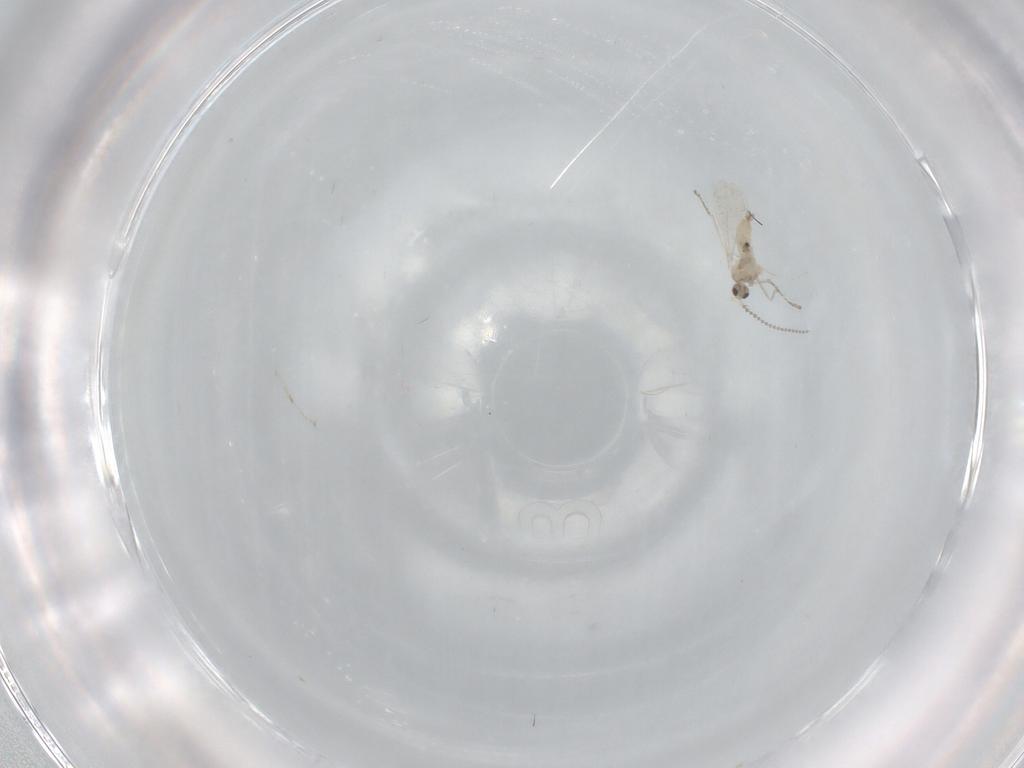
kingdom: Animalia
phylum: Arthropoda
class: Insecta
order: Diptera
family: Cecidomyiidae
